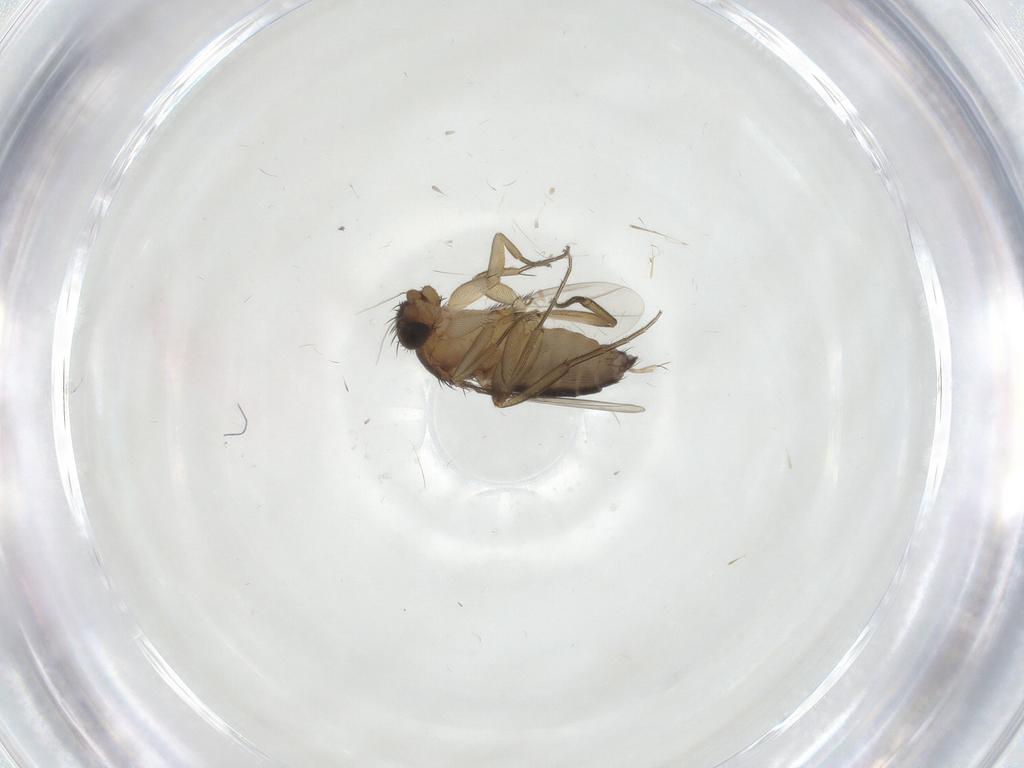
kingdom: Animalia
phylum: Arthropoda
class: Insecta
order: Diptera
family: Phoridae
